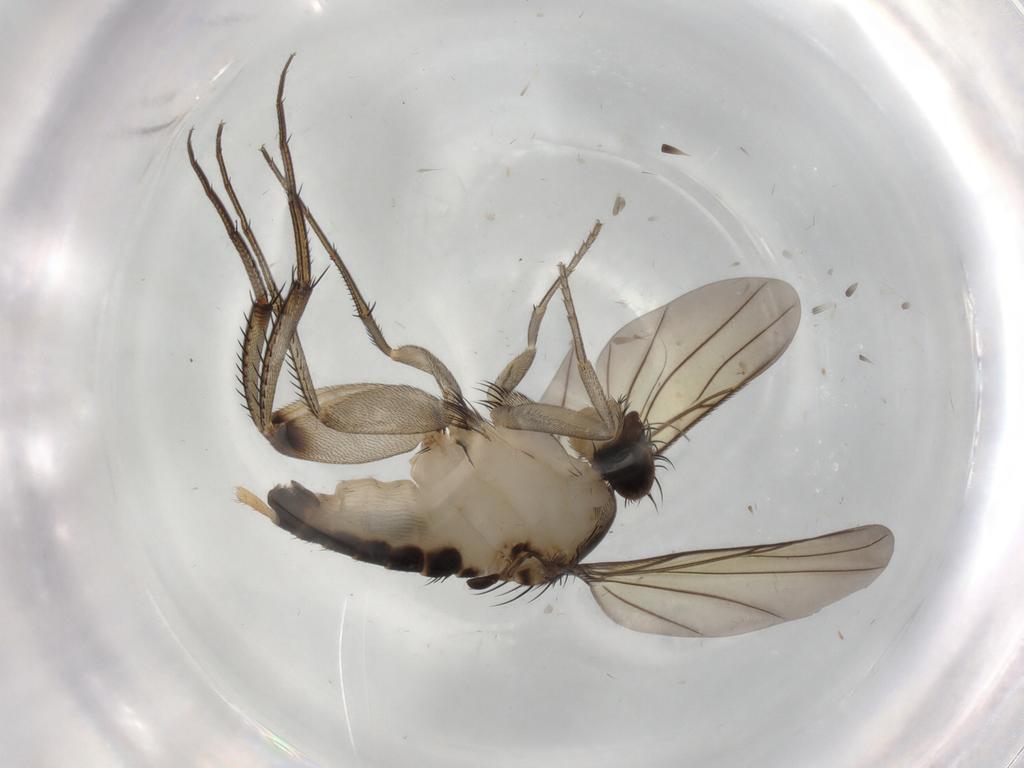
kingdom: Animalia
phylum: Arthropoda
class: Insecta
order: Diptera
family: Phoridae
